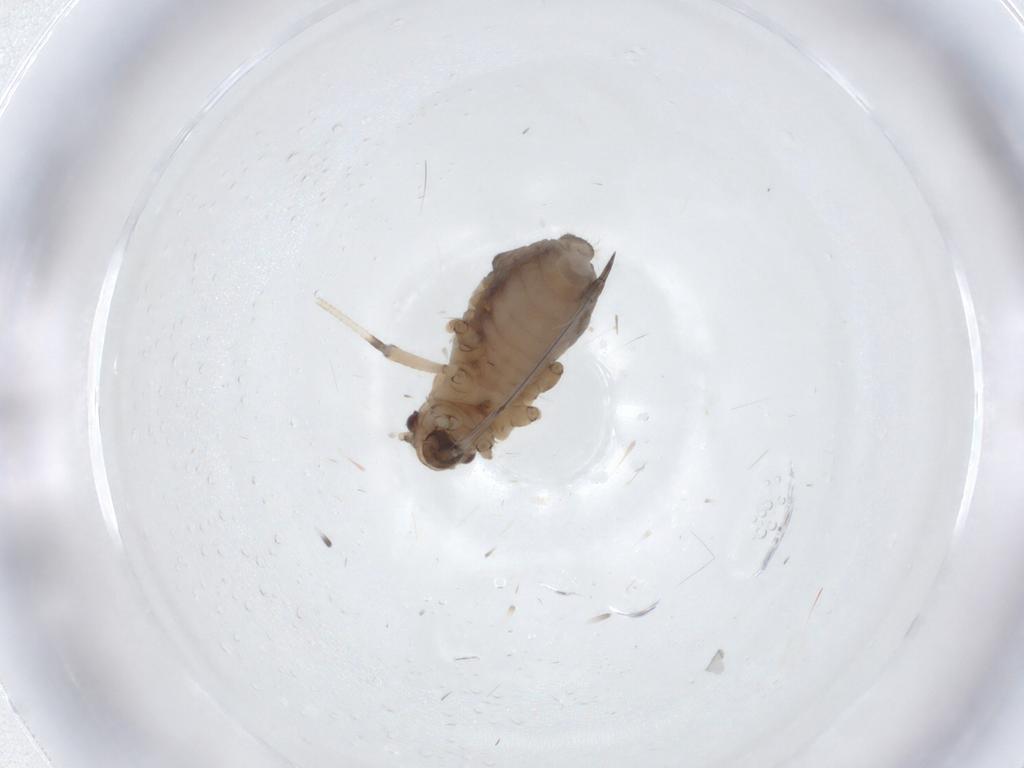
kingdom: Animalia
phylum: Arthropoda
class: Insecta
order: Hemiptera
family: Aphididae
